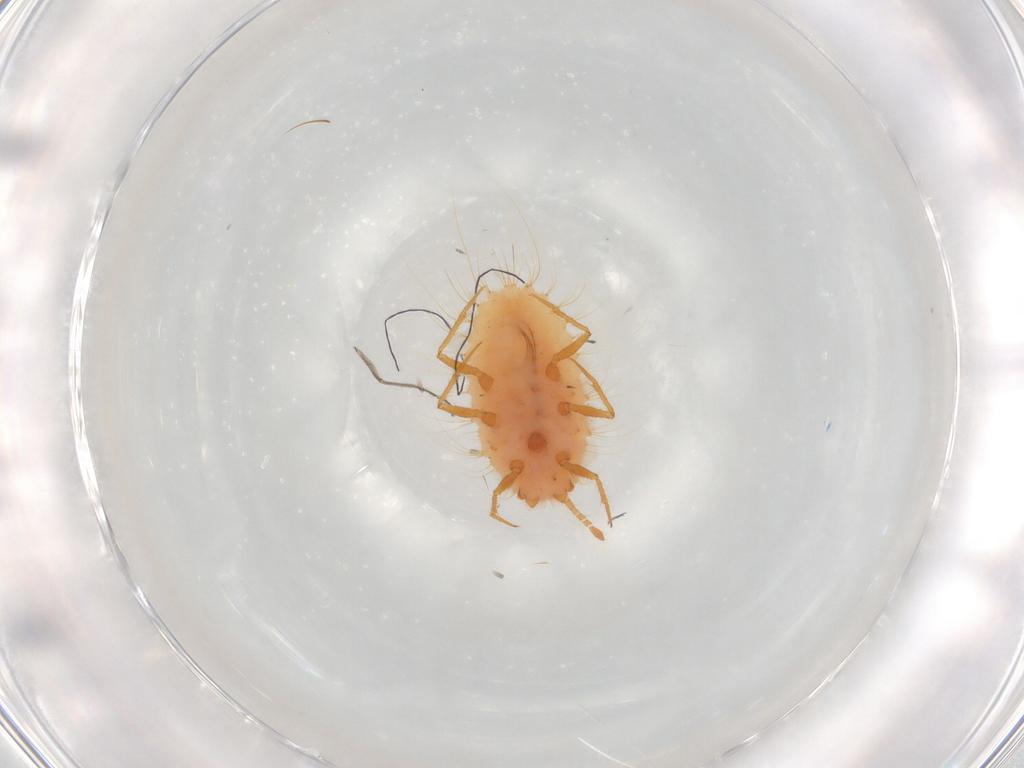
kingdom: Animalia
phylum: Arthropoda
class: Insecta
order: Hemiptera
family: Coccoidea_incertae_sedis
